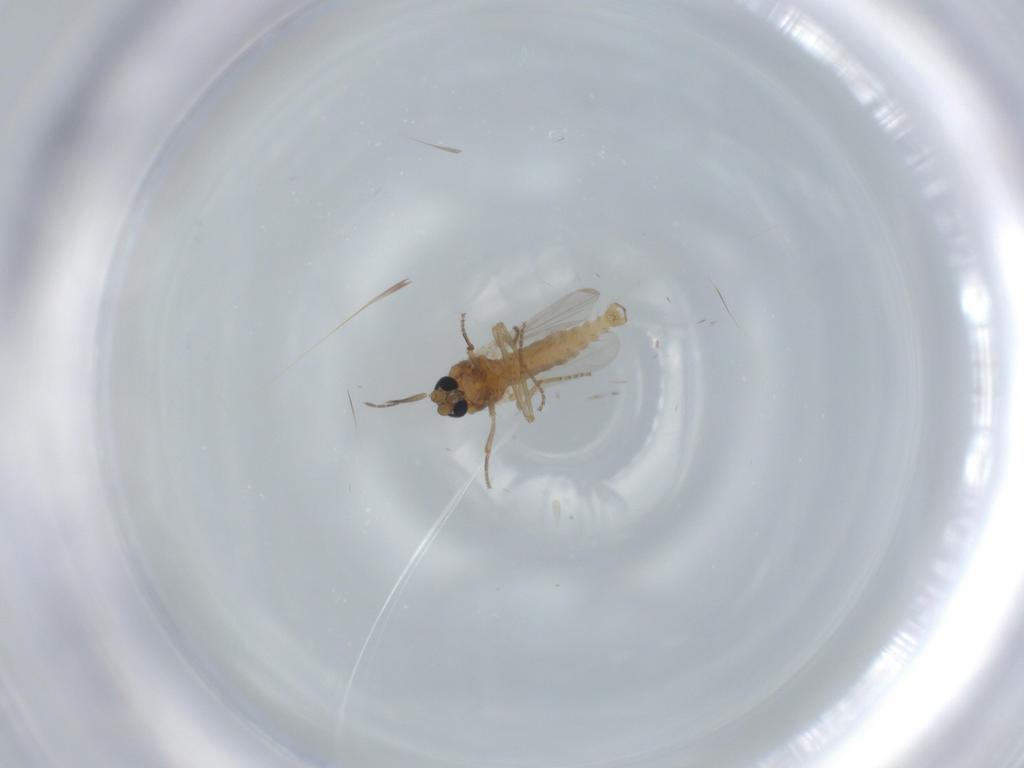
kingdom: Animalia
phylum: Arthropoda
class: Insecta
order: Diptera
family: Ceratopogonidae
